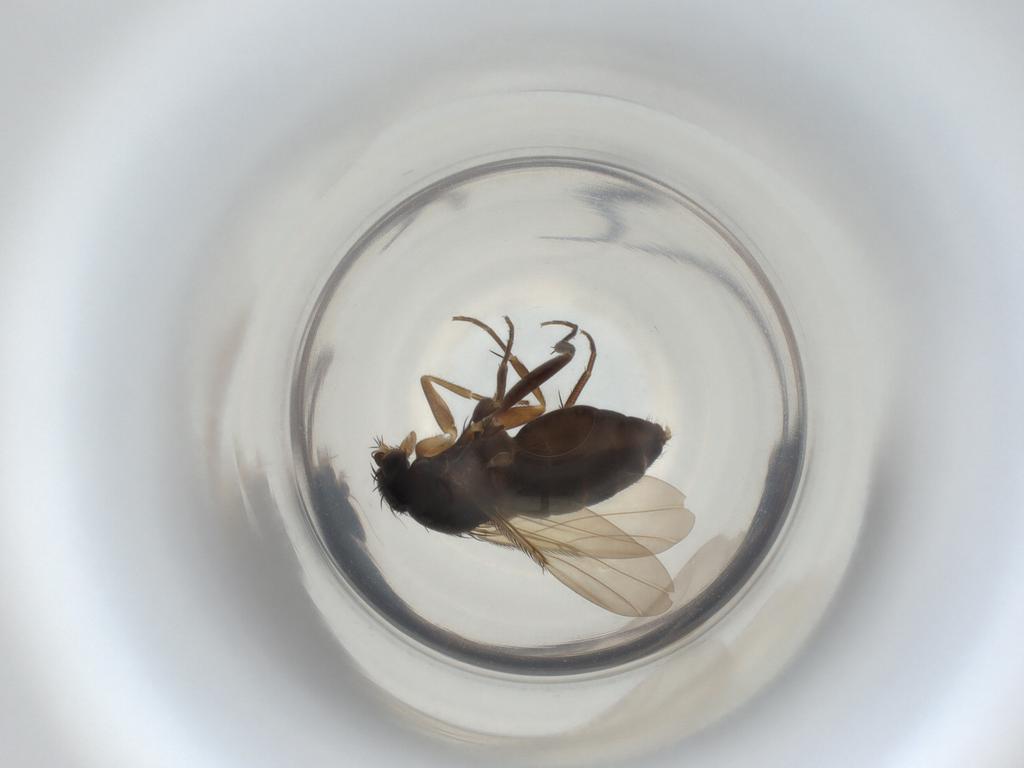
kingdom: Animalia
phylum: Arthropoda
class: Insecta
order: Diptera
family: Phoridae
